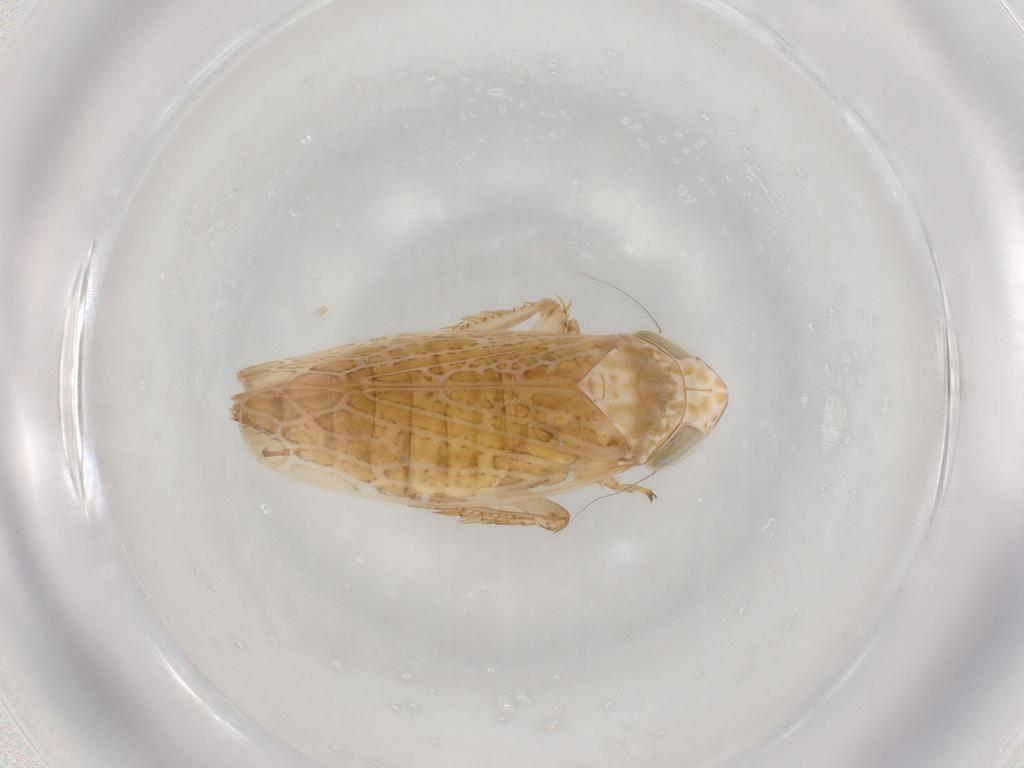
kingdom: Animalia
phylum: Arthropoda
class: Insecta
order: Hemiptera
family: Cicadellidae
